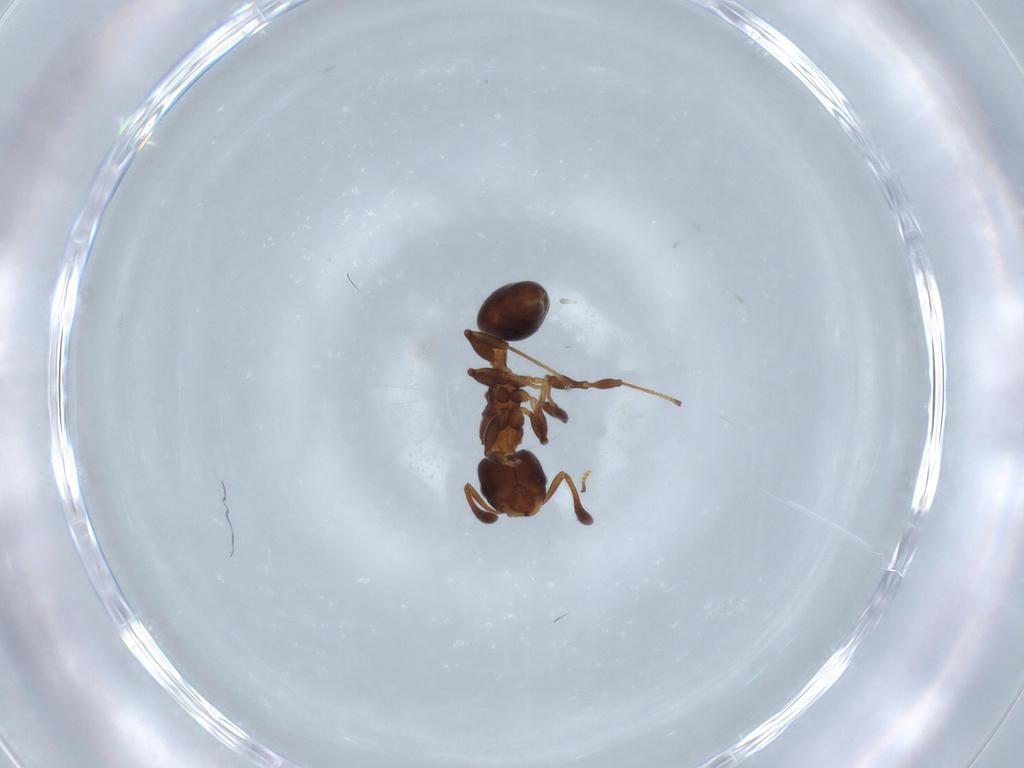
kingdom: Animalia
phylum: Arthropoda
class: Insecta
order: Hymenoptera
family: Formicidae
